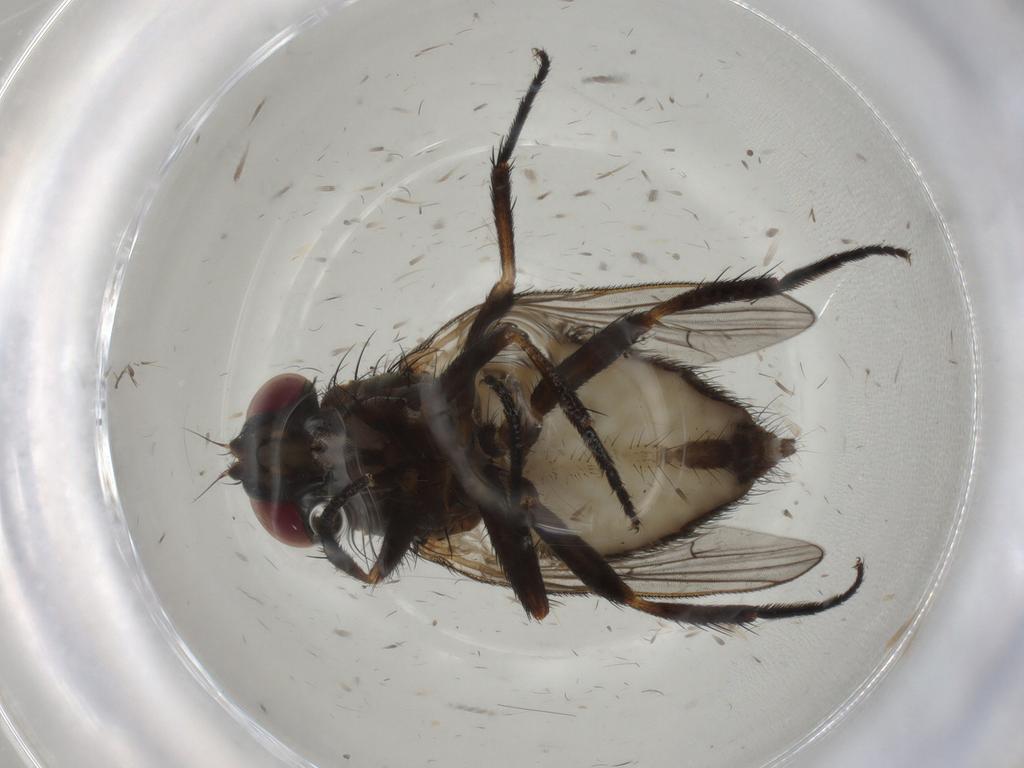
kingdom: Animalia
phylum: Arthropoda
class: Insecta
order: Diptera
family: Fannia
